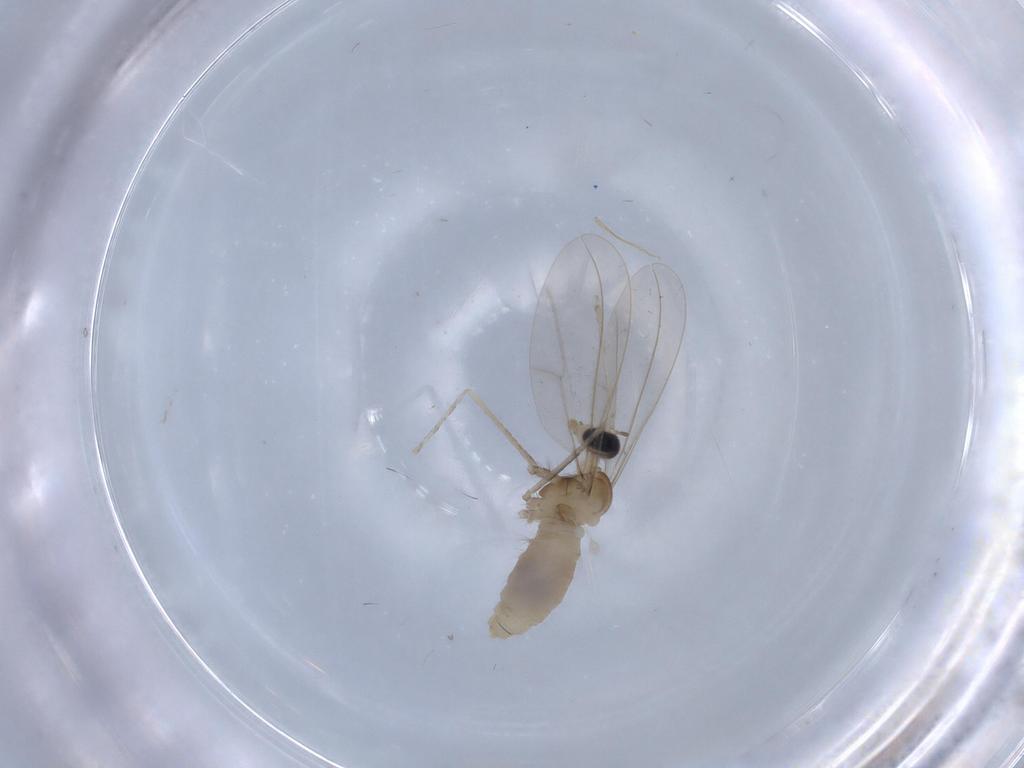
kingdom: Animalia
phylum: Arthropoda
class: Insecta
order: Diptera
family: Cecidomyiidae
